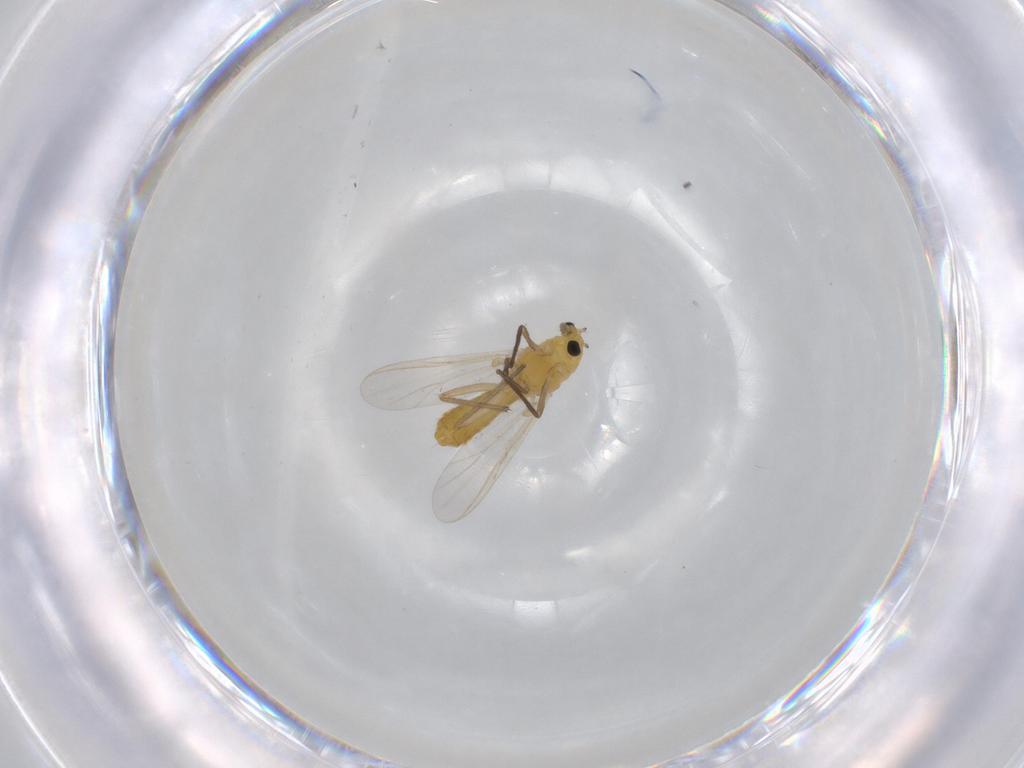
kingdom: Animalia
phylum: Arthropoda
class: Insecta
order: Diptera
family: Chironomidae
